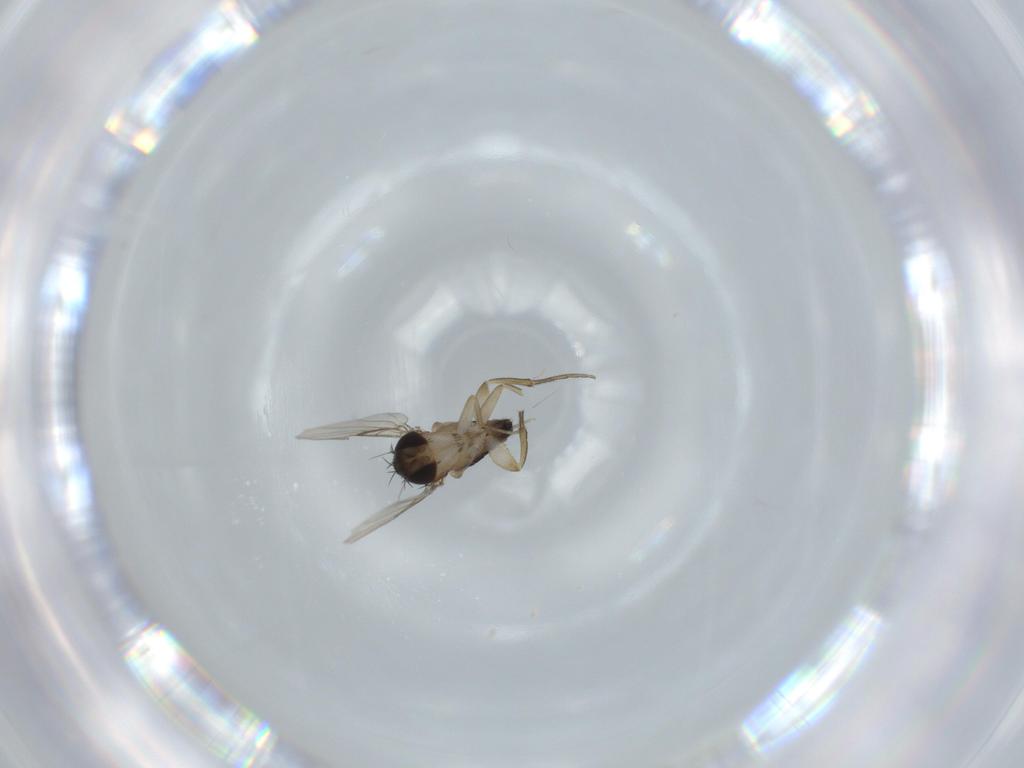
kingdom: Animalia
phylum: Arthropoda
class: Insecta
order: Diptera
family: Phoridae
